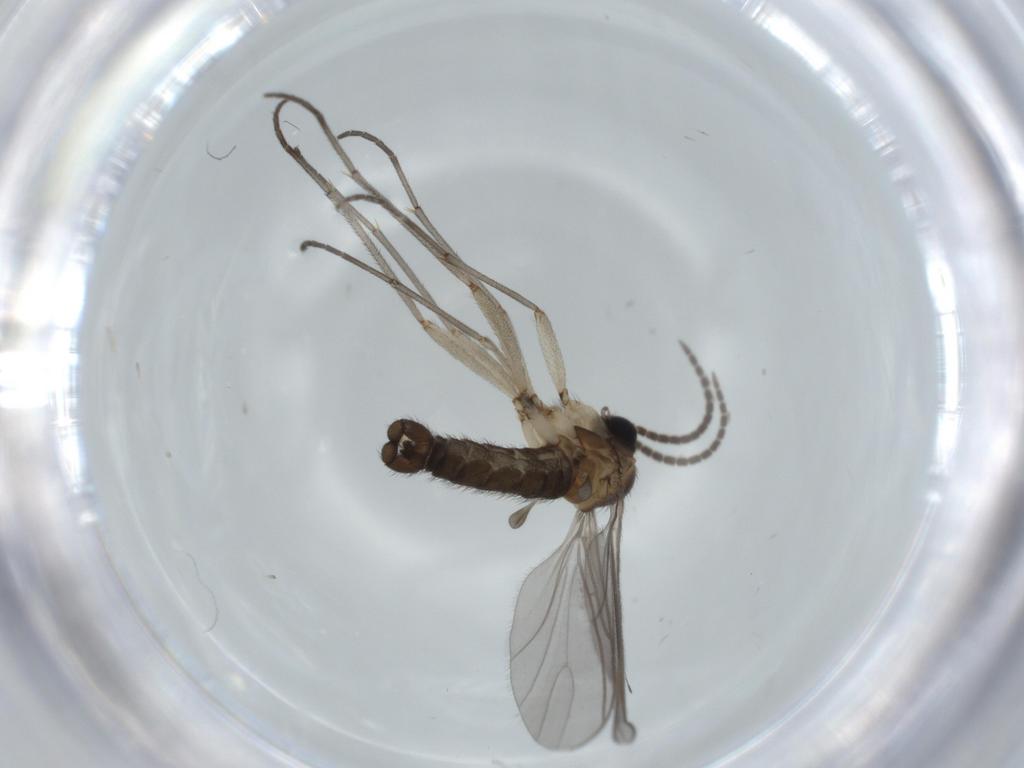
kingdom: Animalia
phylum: Arthropoda
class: Insecta
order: Diptera
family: Sciaridae
